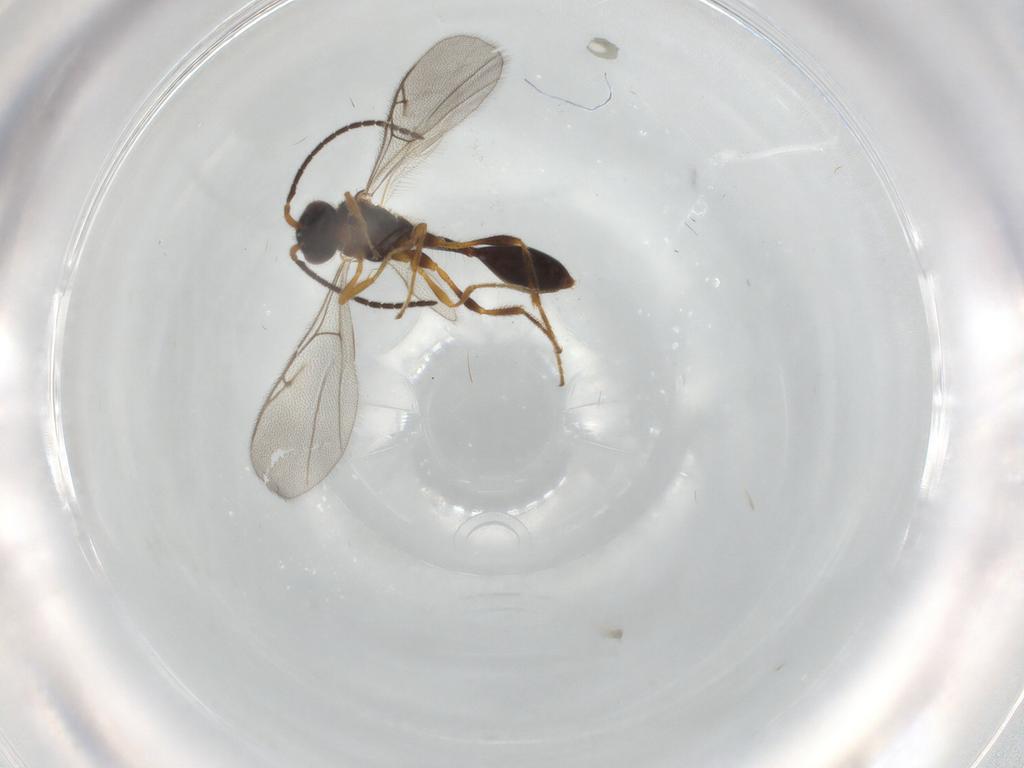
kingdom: Animalia
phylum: Arthropoda
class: Insecta
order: Hymenoptera
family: Diapriidae
